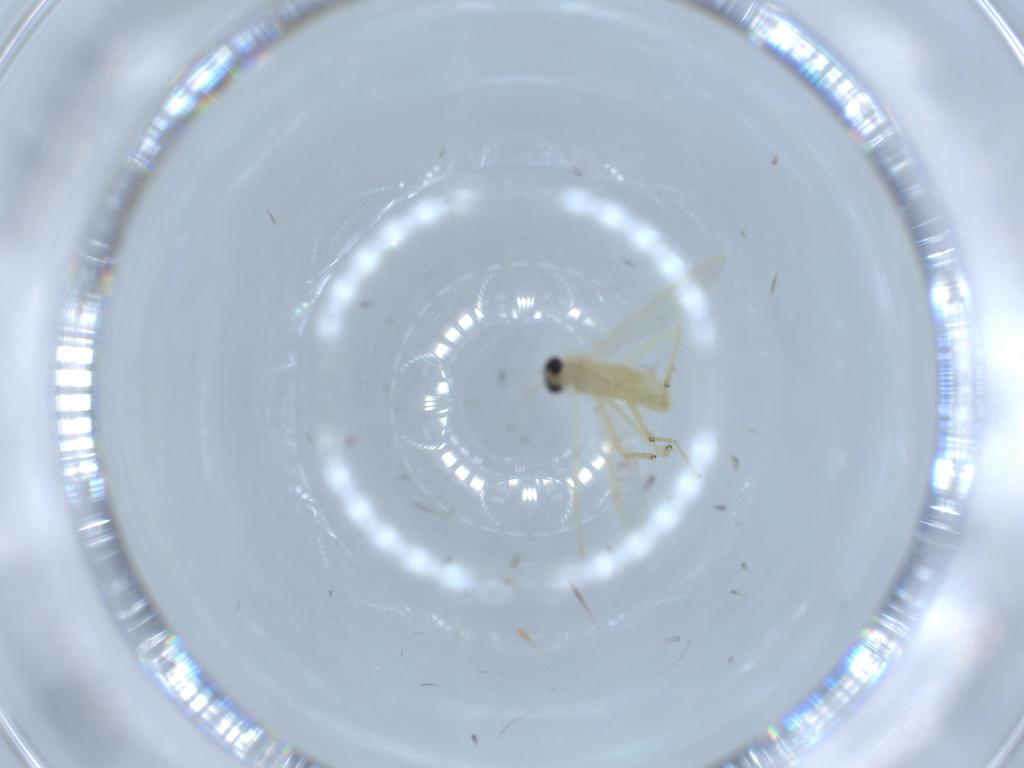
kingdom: Animalia
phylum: Arthropoda
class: Insecta
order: Diptera
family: Chironomidae
